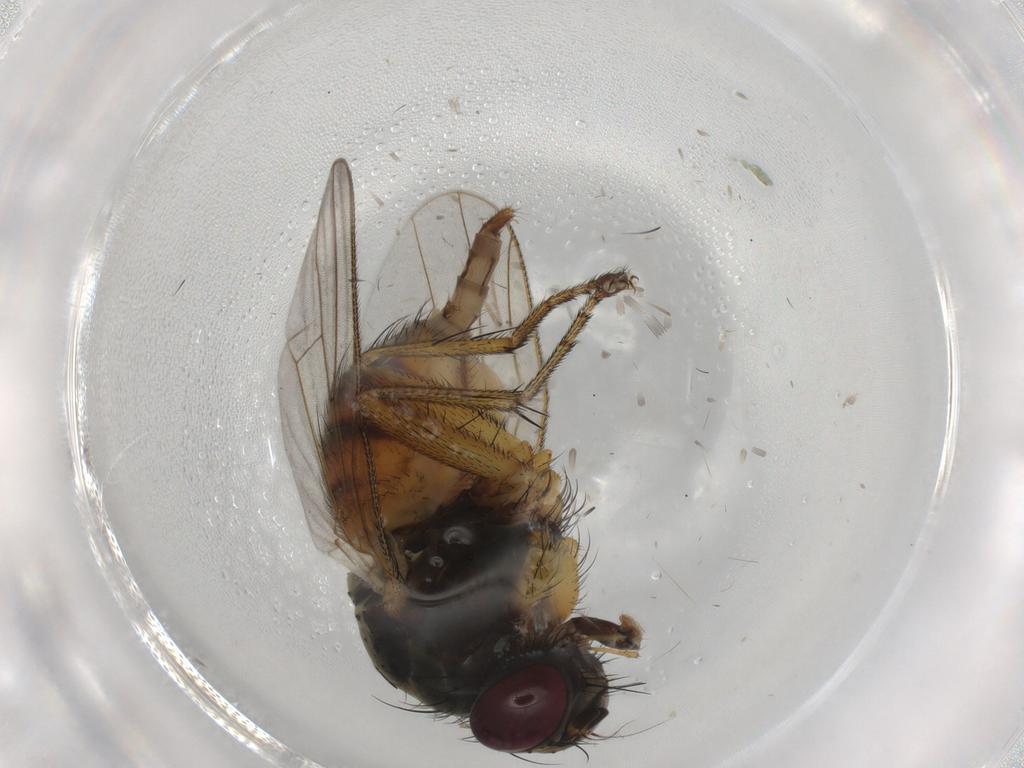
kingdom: Animalia
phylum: Arthropoda
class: Insecta
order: Diptera
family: Muscidae
